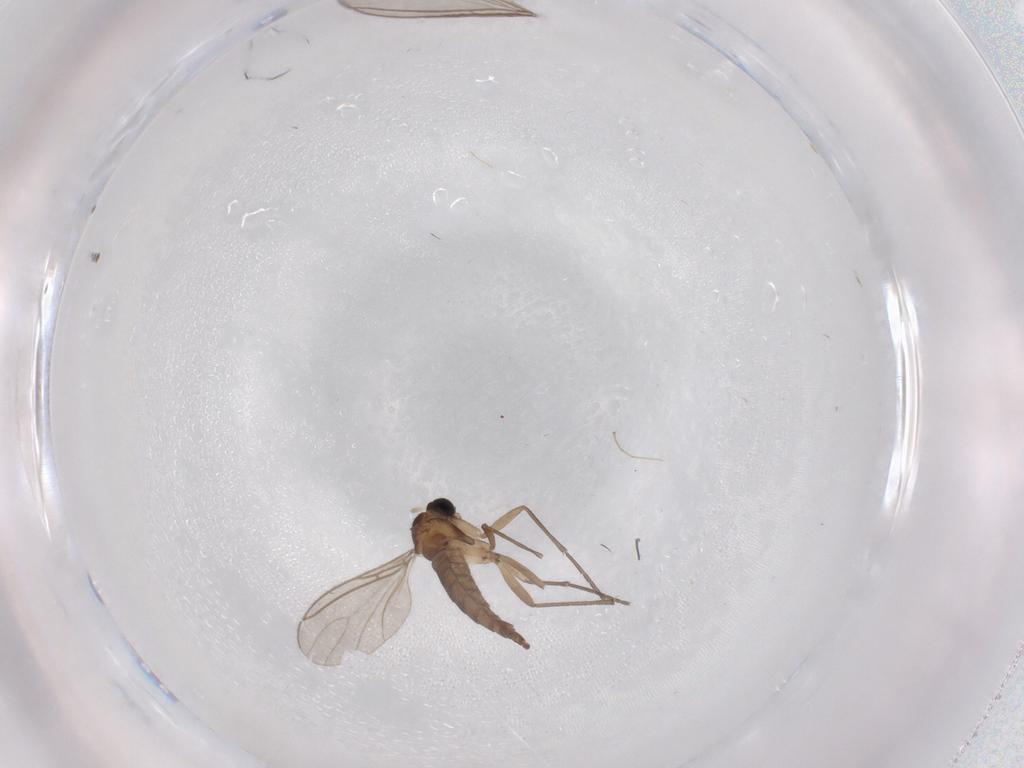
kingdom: Animalia
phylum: Arthropoda
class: Insecta
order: Diptera
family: Sciaridae
